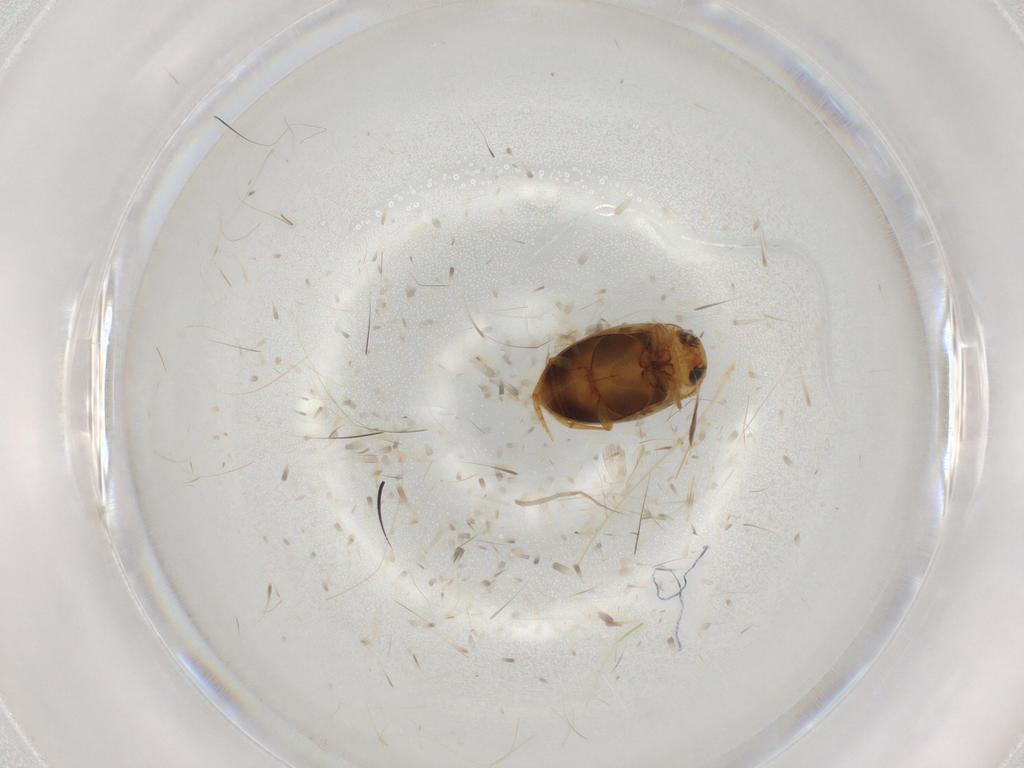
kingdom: Animalia
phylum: Arthropoda
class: Insecta
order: Coleoptera
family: Dytiscidae
